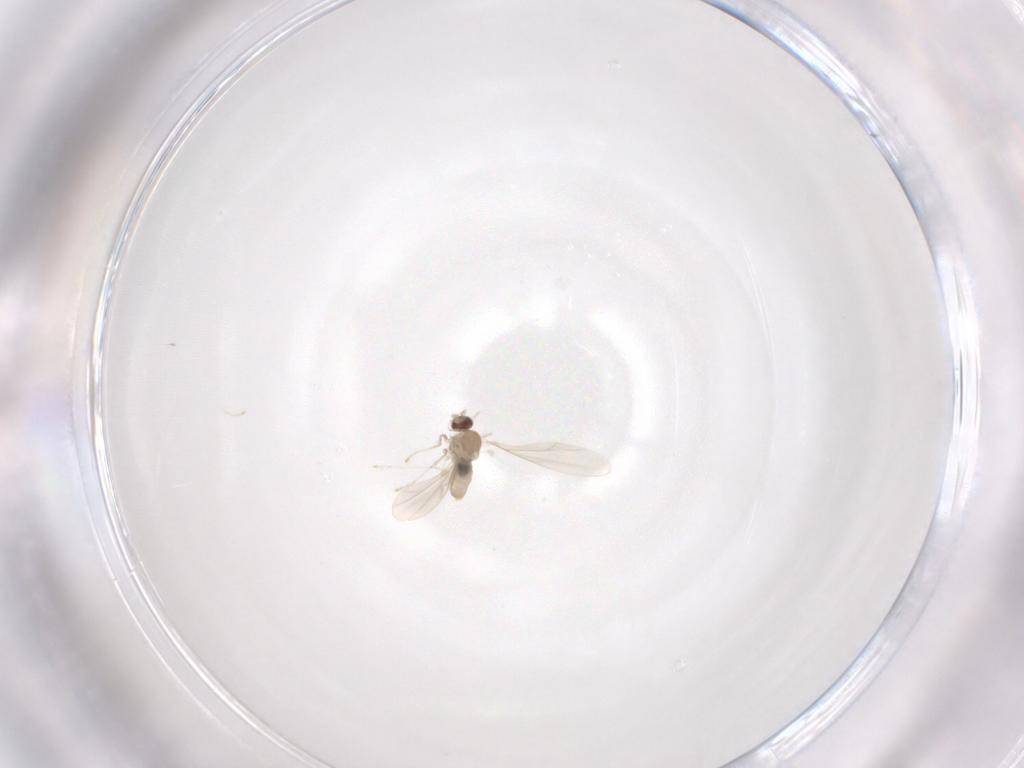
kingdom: Animalia
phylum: Arthropoda
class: Insecta
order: Diptera
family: Cecidomyiidae
